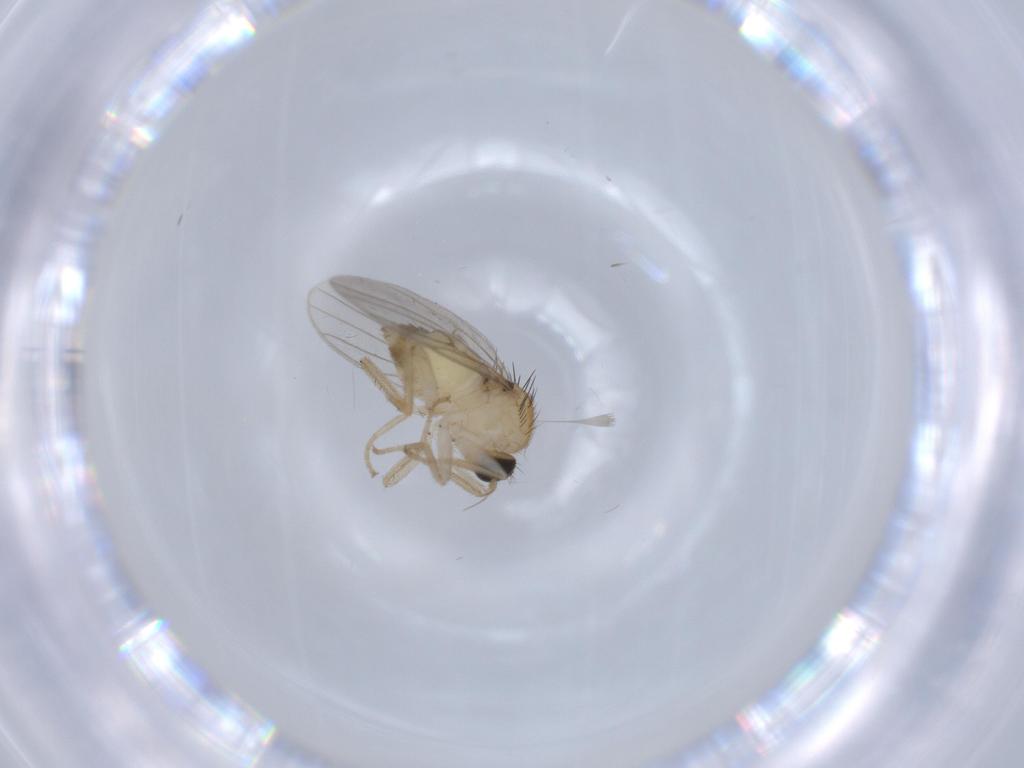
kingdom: Animalia
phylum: Arthropoda
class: Insecta
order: Diptera
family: Hybotidae
